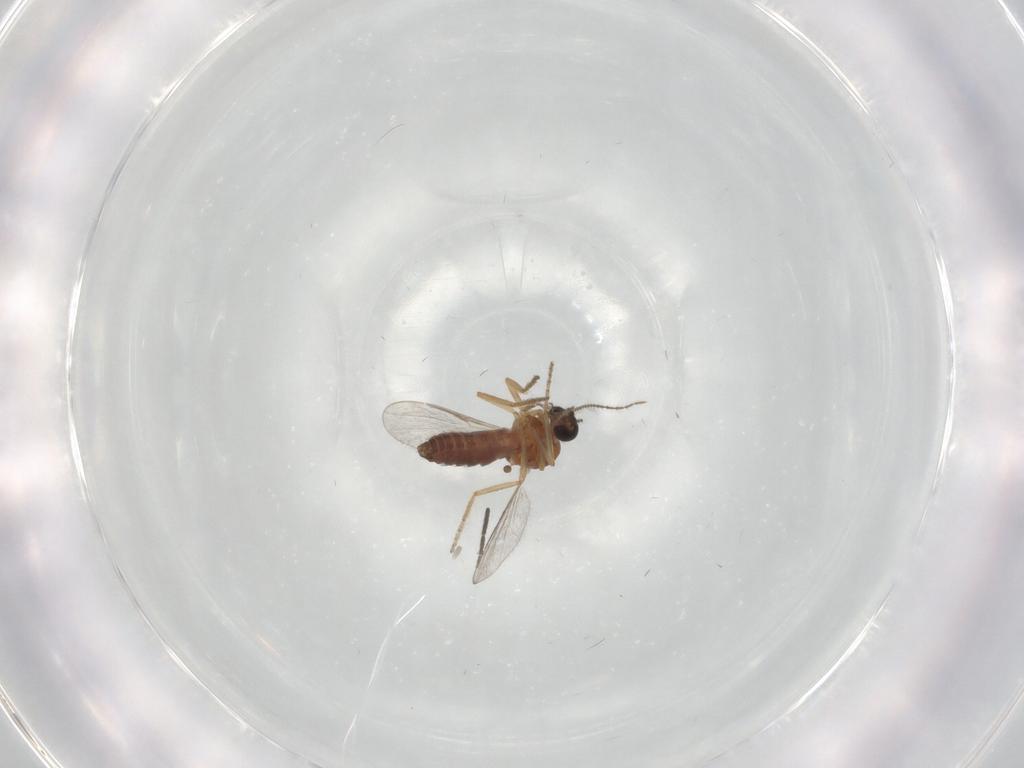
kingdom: Animalia
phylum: Arthropoda
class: Insecta
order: Diptera
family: Ceratopogonidae
